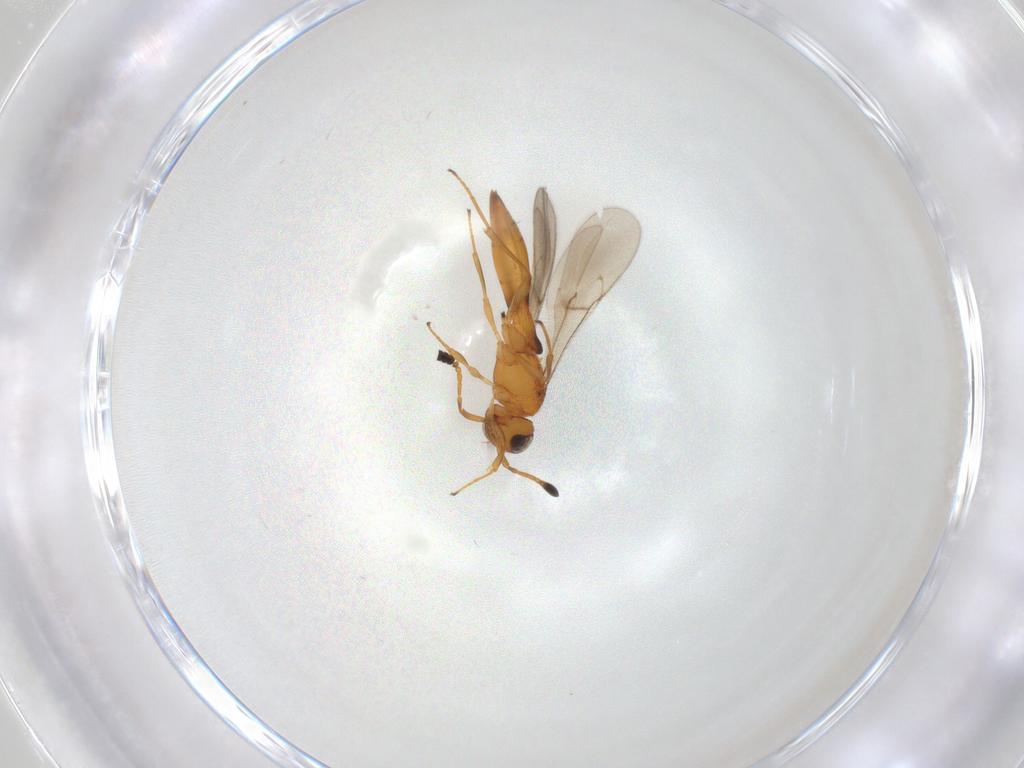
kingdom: Animalia
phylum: Arthropoda
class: Insecta
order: Hymenoptera
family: Scelionidae
